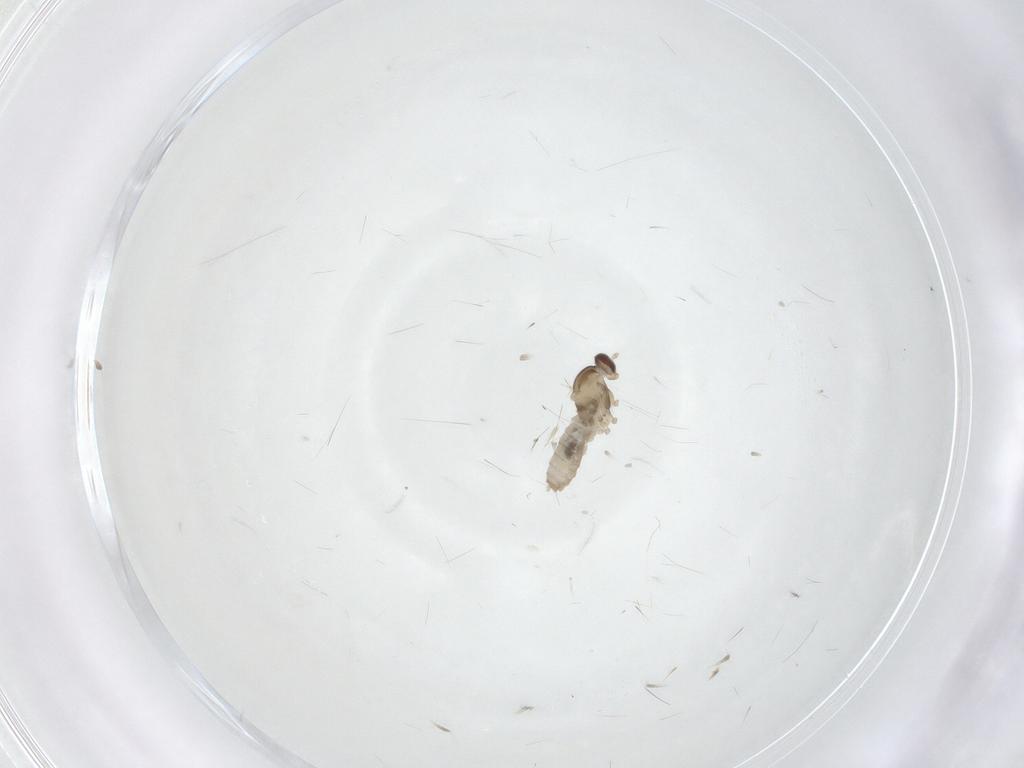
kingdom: Animalia
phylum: Arthropoda
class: Insecta
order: Diptera
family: Cecidomyiidae
